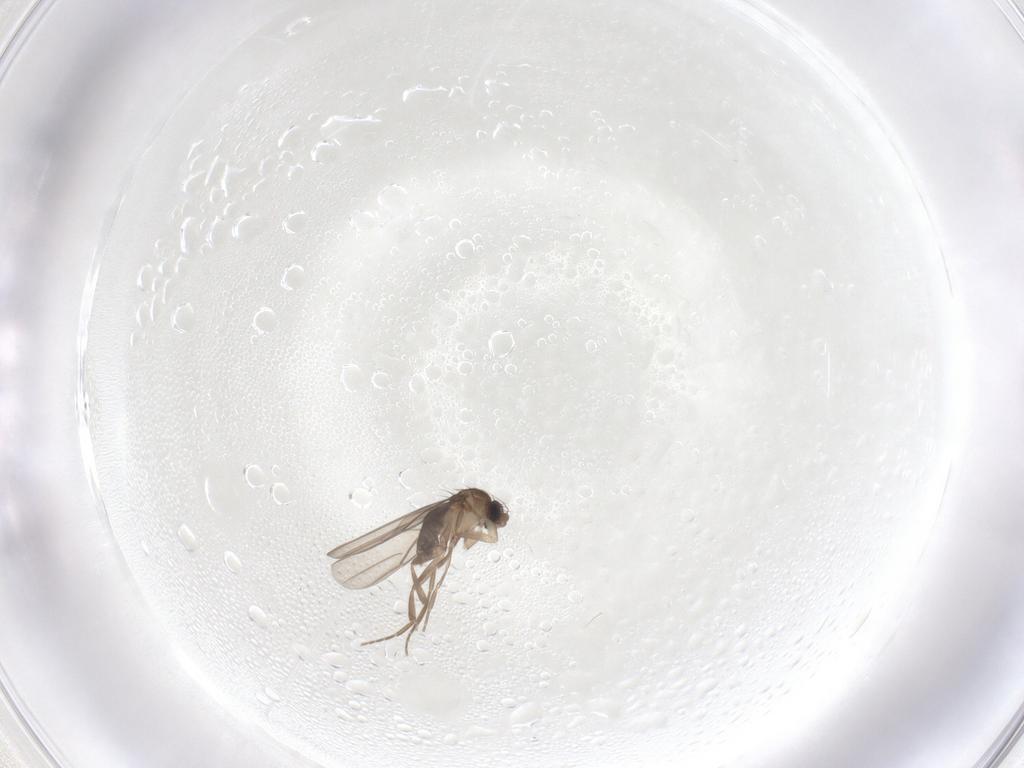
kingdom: Animalia
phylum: Arthropoda
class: Insecta
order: Diptera
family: Phoridae
